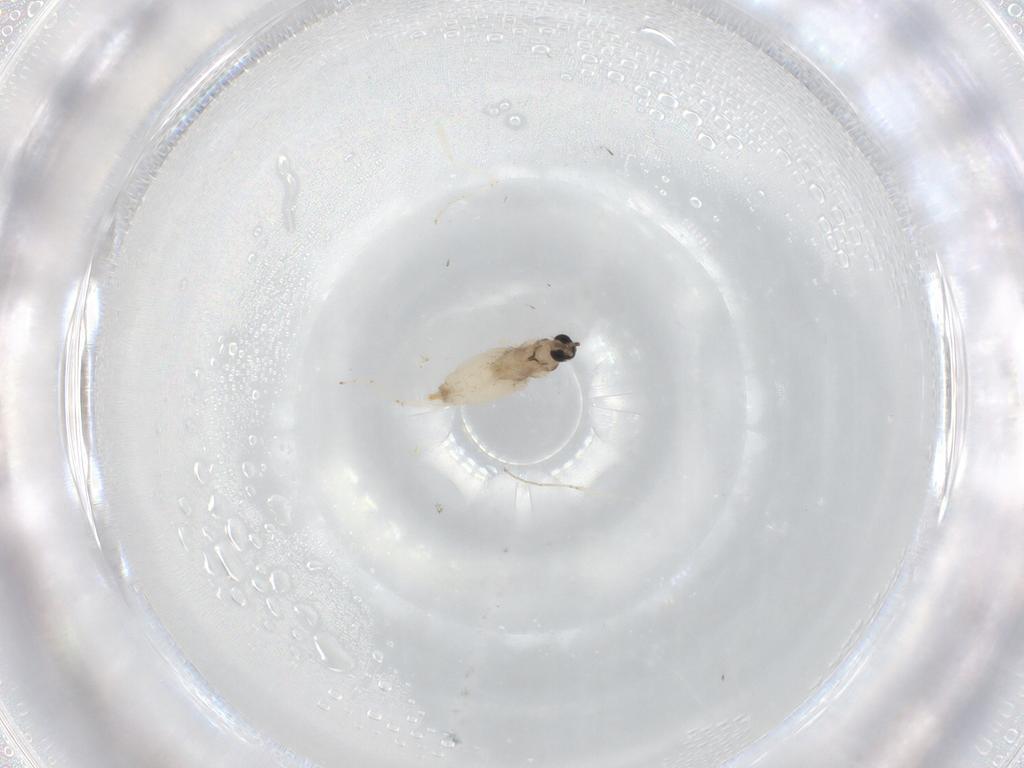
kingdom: Animalia
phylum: Arthropoda
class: Insecta
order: Diptera
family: Cecidomyiidae
